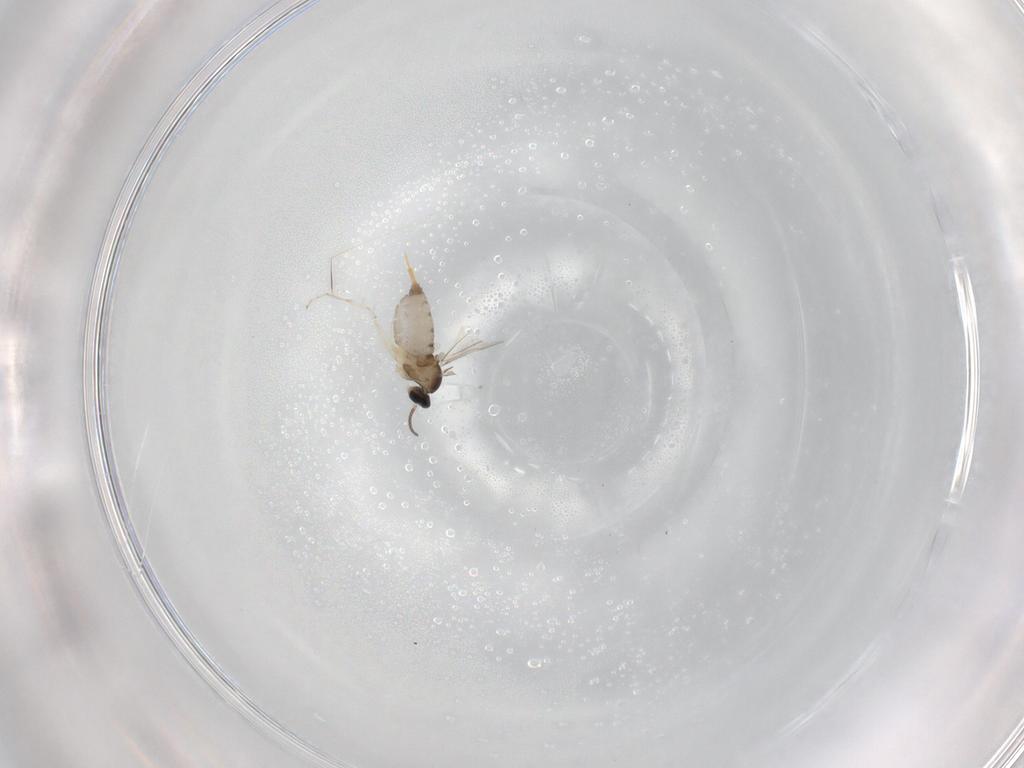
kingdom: Animalia
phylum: Arthropoda
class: Insecta
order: Diptera
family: Cecidomyiidae
